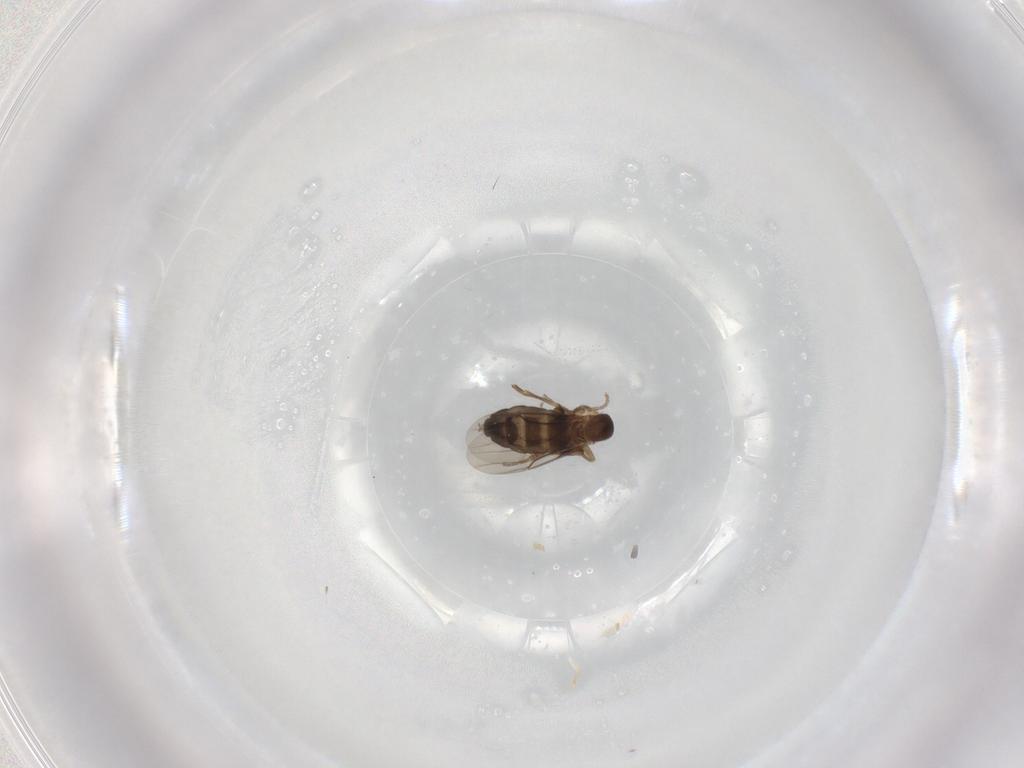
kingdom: Animalia
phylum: Arthropoda
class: Insecta
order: Diptera
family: Phoridae
